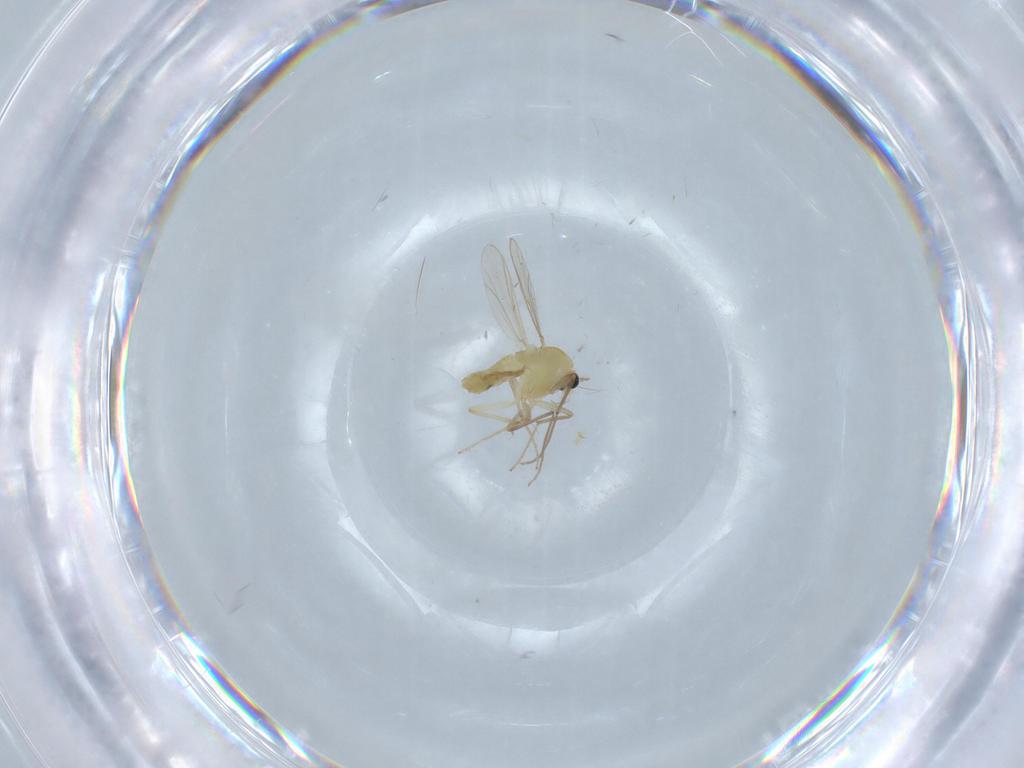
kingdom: Animalia
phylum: Arthropoda
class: Insecta
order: Diptera
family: Chironomidae
